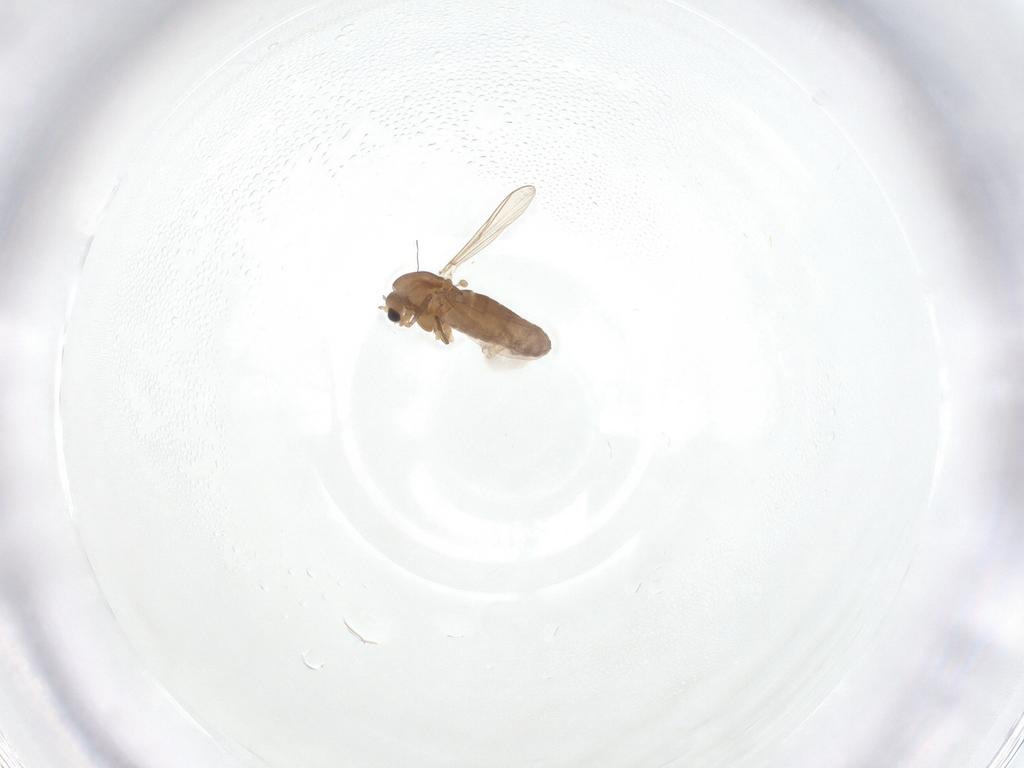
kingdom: Animalia
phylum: Arthropoda
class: Insecta
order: Diptera
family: Chironomidae
